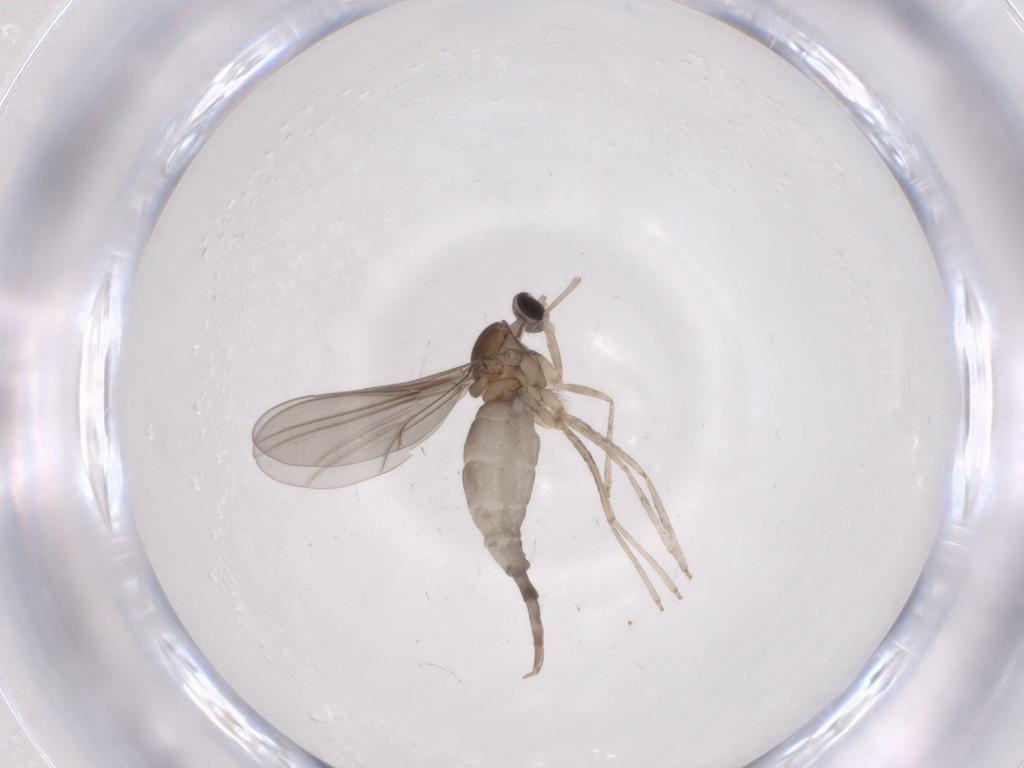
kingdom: Animalia
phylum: Arthropoda
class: Insecta
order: Diptera
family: Cecidomyiidae
